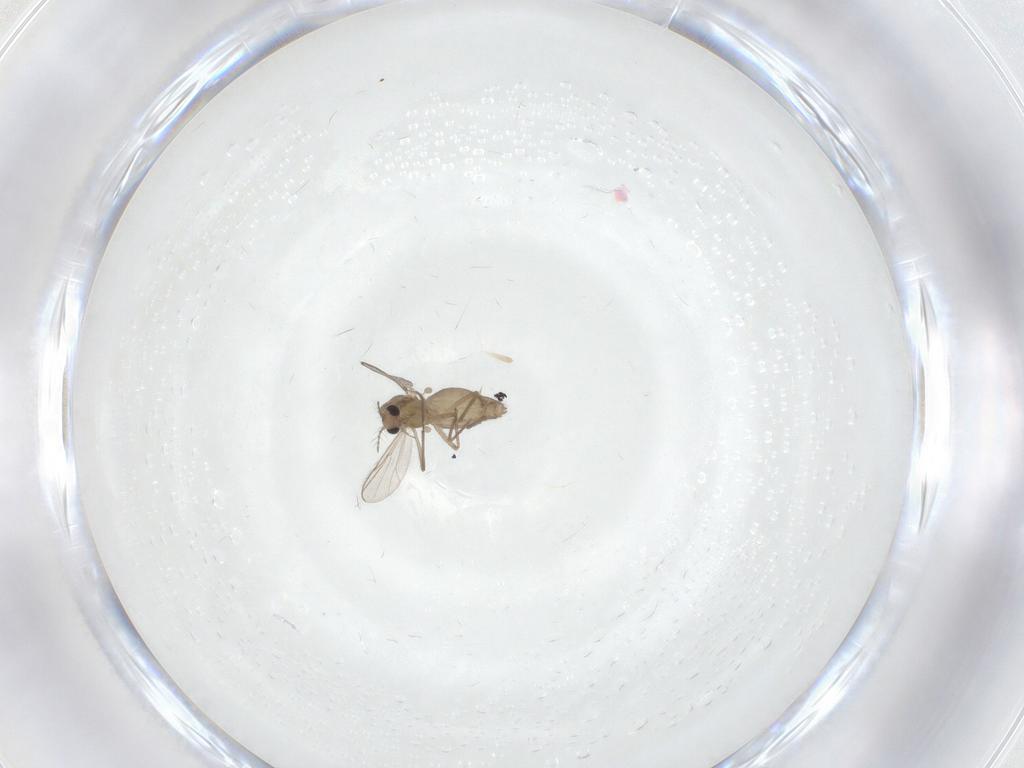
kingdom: Animalia
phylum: Arthropoda
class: Insecta
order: Diptera
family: Chironomidae
